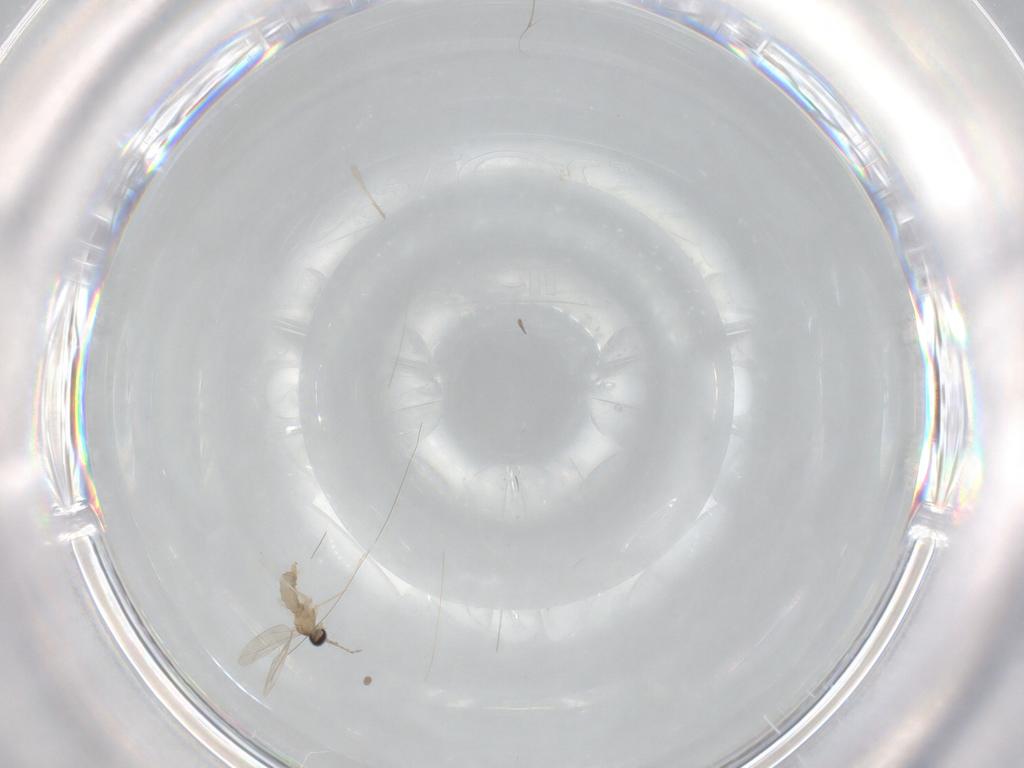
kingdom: Animalia
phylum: Arthropoda
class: Insecta
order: Diptera
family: Cecidomyiidae
